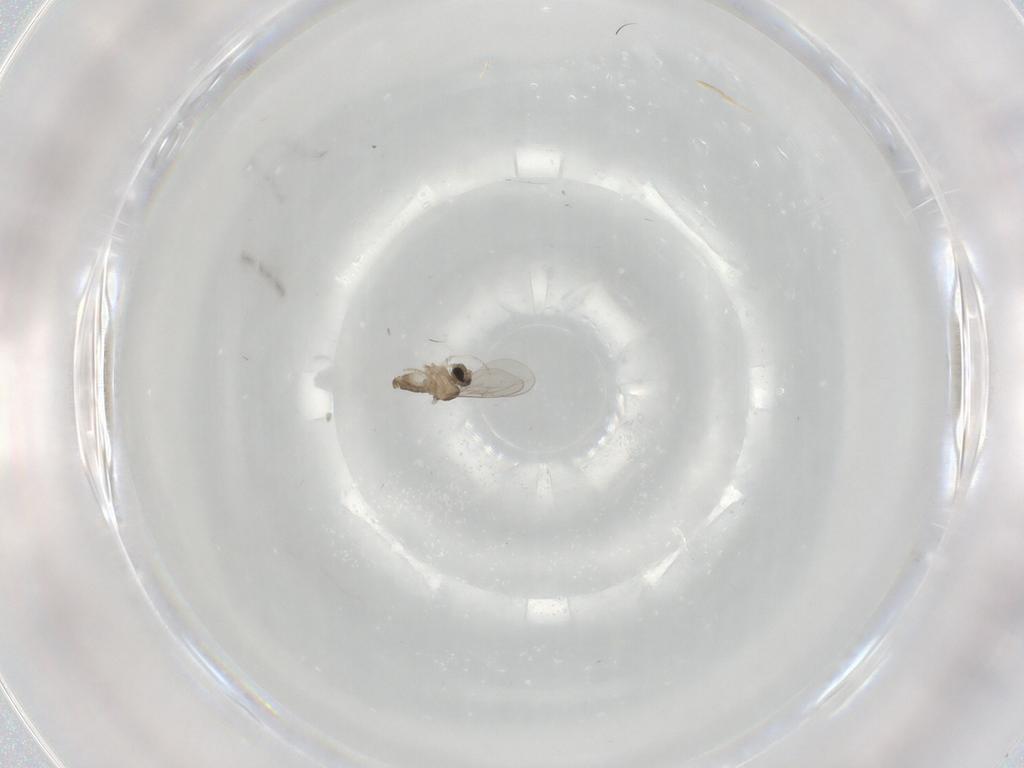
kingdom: Animalia
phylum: Arthropoda
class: Insecta
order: Diptera
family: Cecidomyiidae
